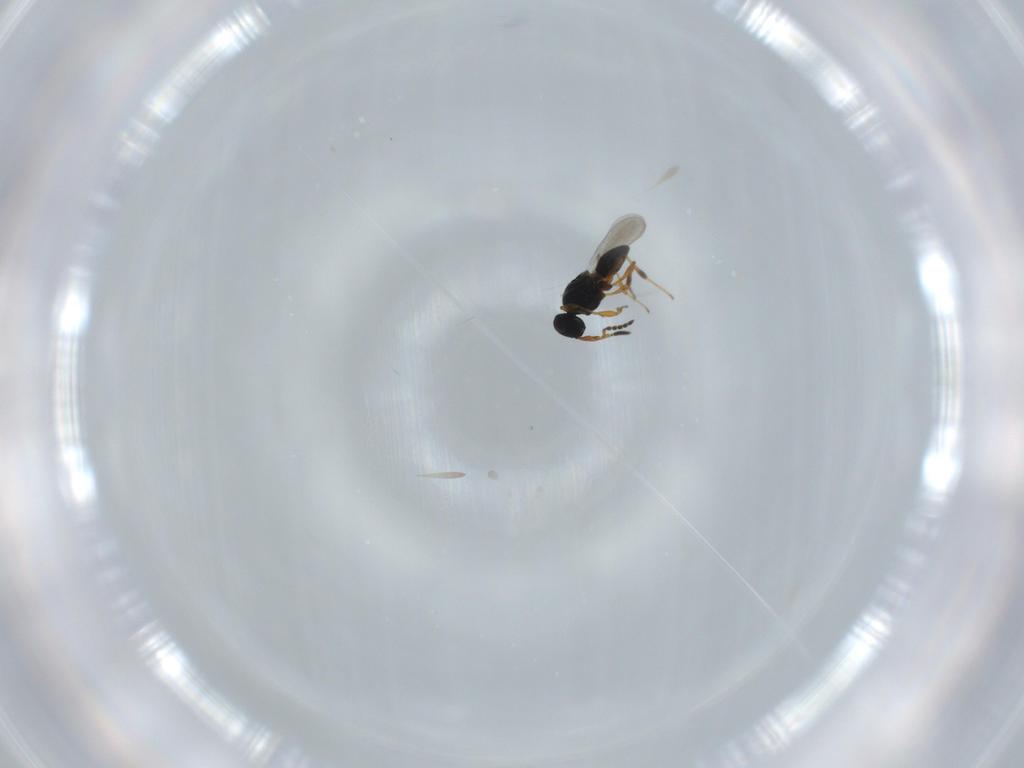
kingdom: Animalia
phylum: Arthropoda
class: Insecta
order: Hymenoptera
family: Platygastridae
